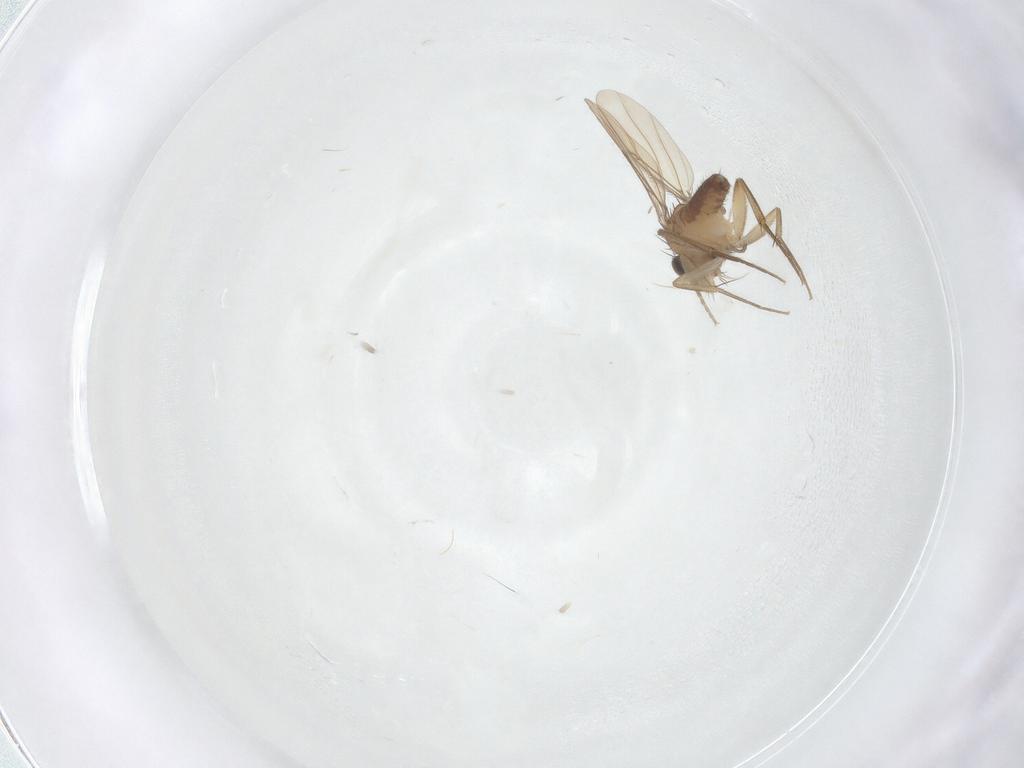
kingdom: Animalia
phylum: Arthropoda
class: Insecta
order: Diptera
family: Phoridae
